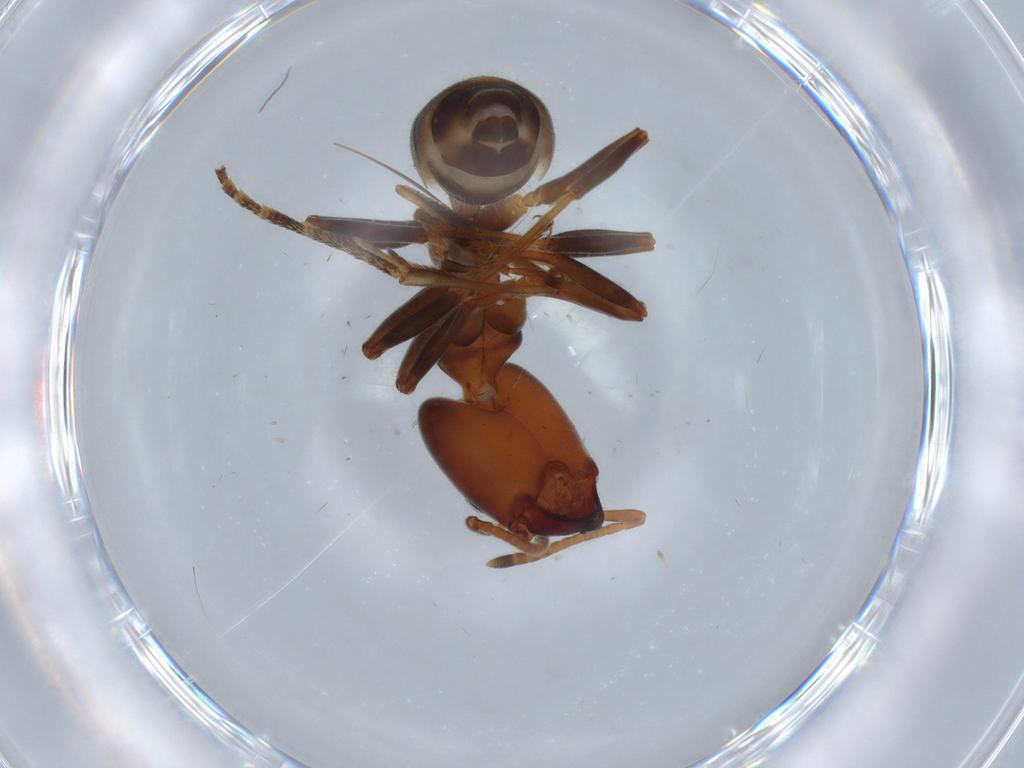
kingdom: Animalia
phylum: Arthropoda
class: Insecta
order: Hymenoptera
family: Formicidae
